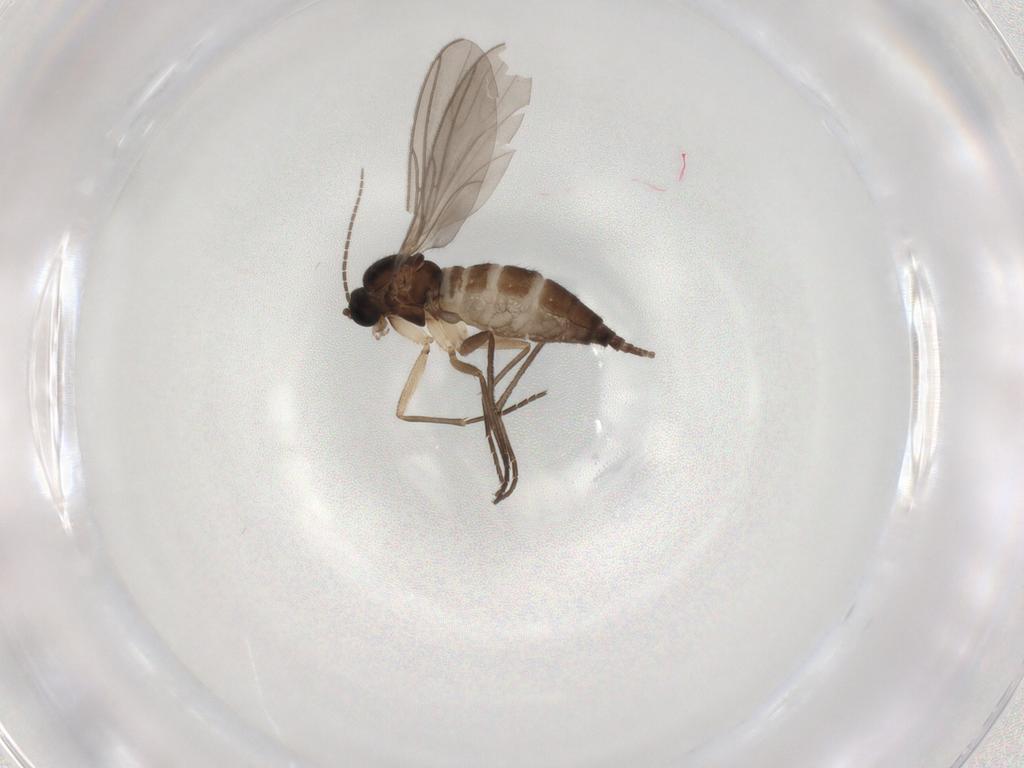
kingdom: Animalia
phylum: Arthropoda
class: Insecta
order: Diptera
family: Sciaridae
